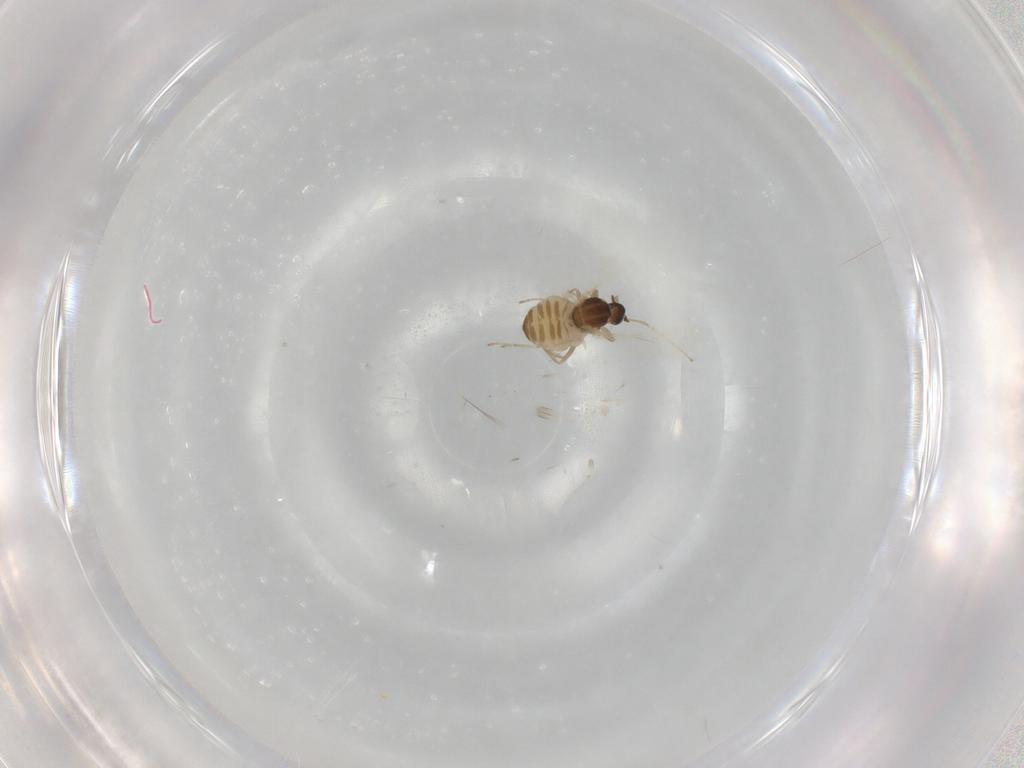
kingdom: Animalia
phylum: Arthropoda
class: Insecta
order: Diptera
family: Cecidomyiidae
